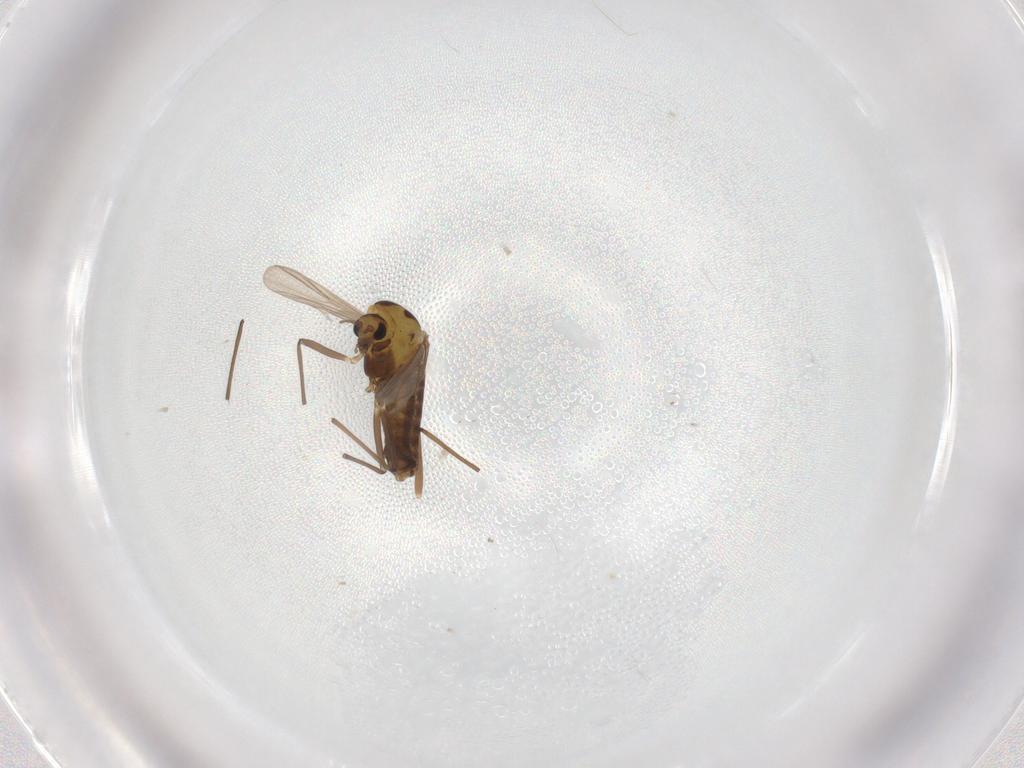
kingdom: Animalia
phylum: Arthropoda
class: Insecta
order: Diptera
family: Chironomidae
